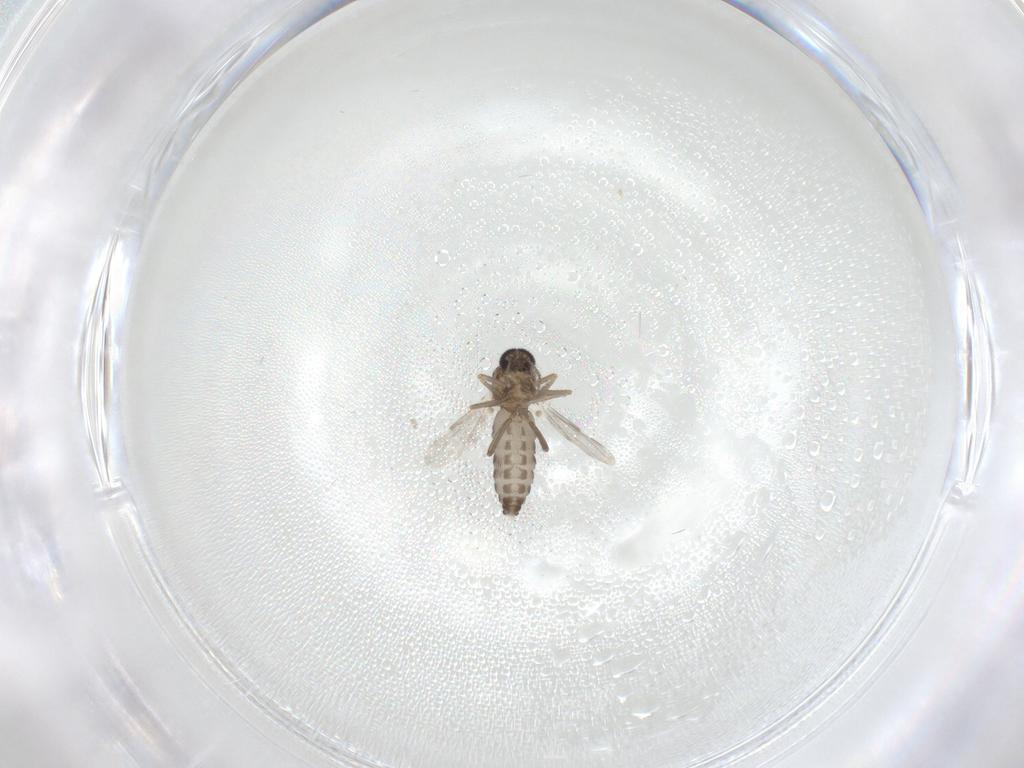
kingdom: Animalia
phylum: Arthropoda
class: Insecta
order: Diptera
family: Ceratopogonidae
